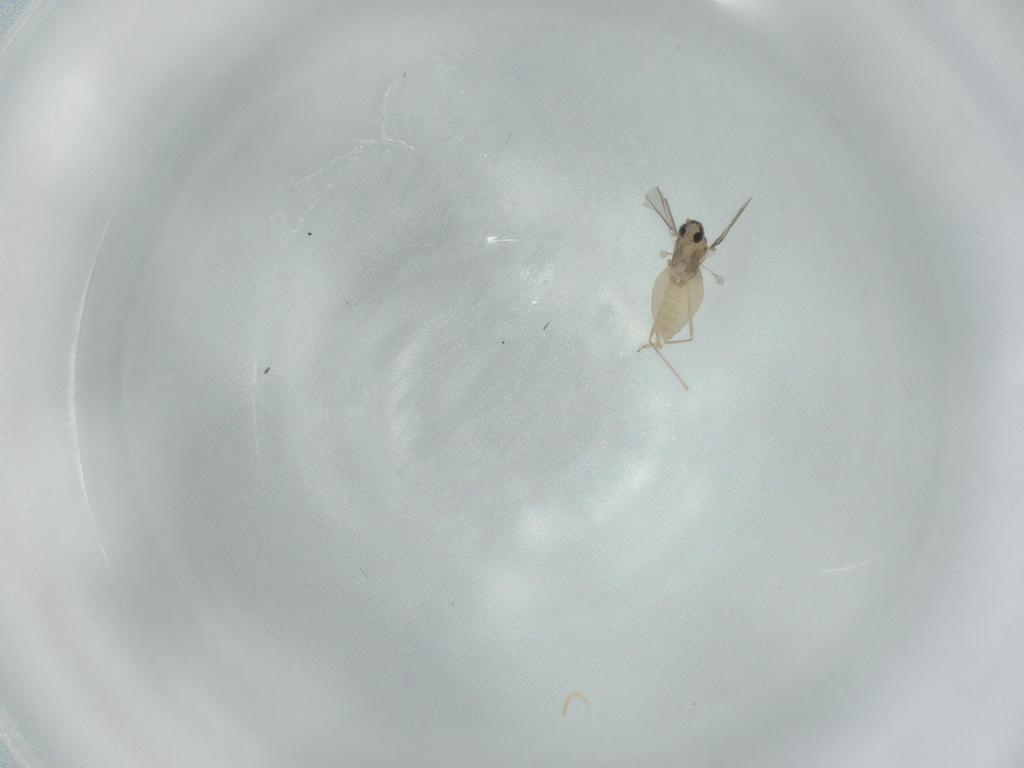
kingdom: Animalia
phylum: Arthropoda
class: Insecta
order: Diptera
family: Cecidomyiidae
